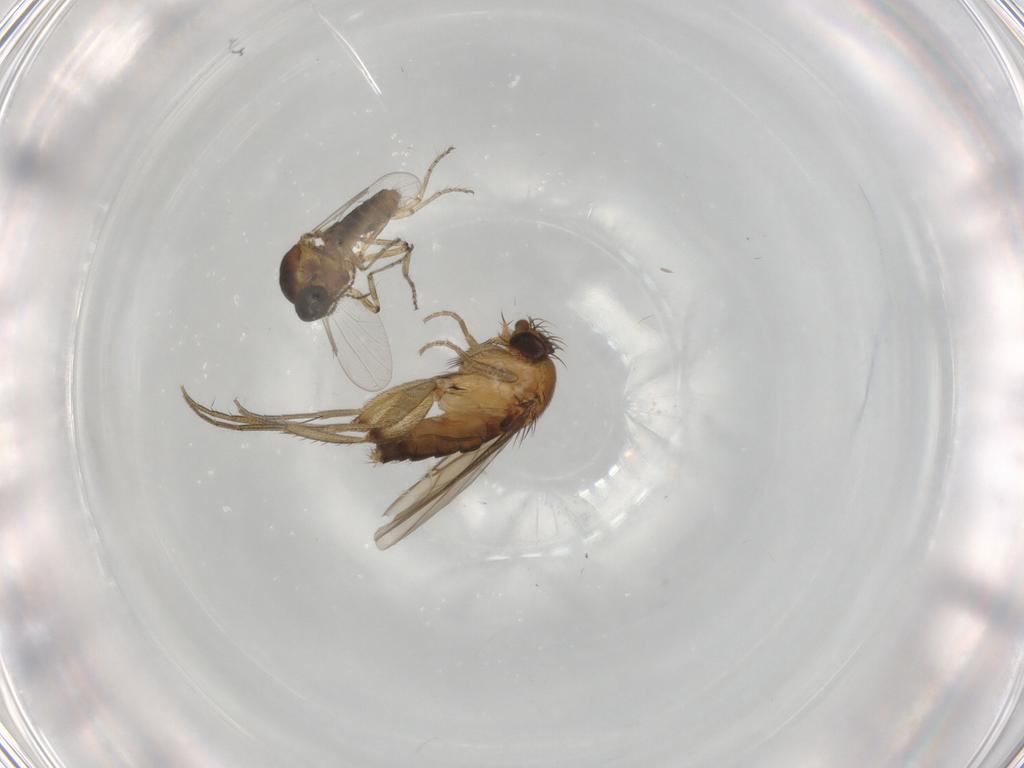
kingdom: Animalia
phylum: Arthropoda
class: Insecta
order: Diptera
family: Ceratopogonidae
